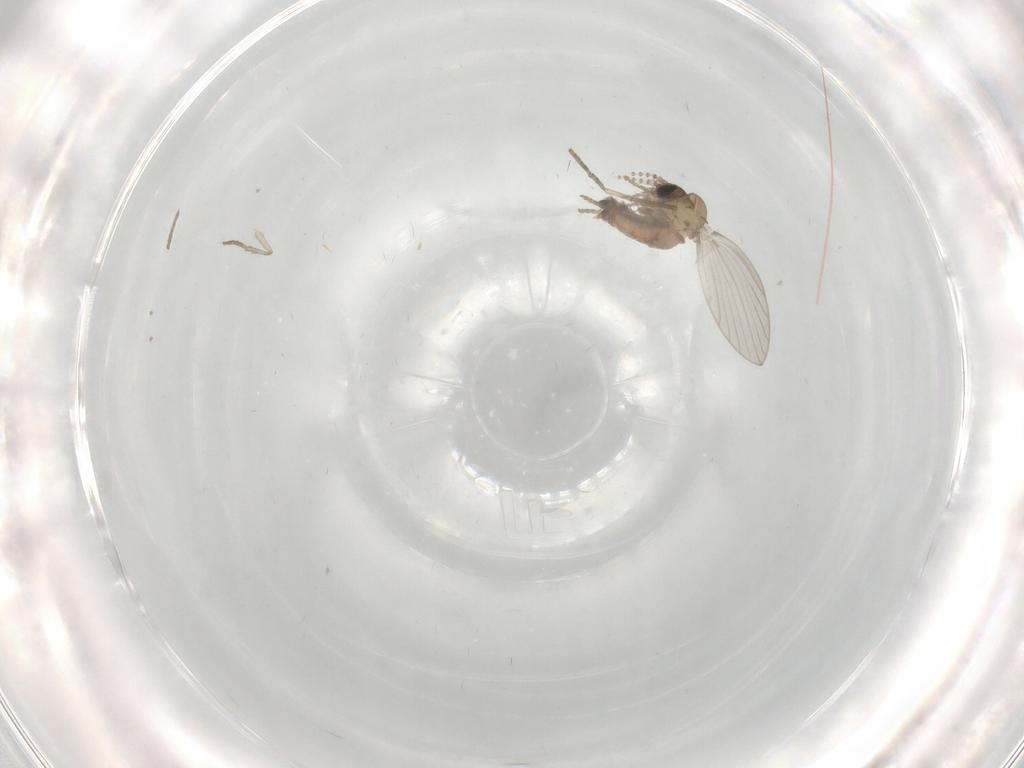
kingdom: Animalia
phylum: Arthropoda
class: Insecta
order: Diptera
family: Psychodidae
